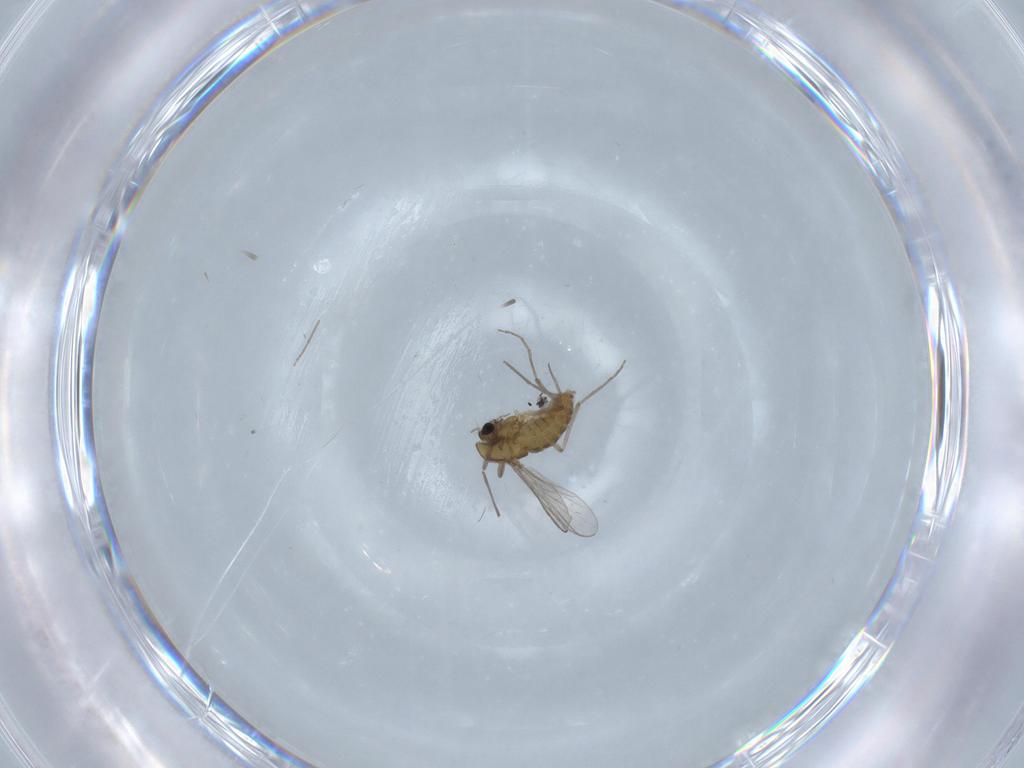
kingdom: Animalia
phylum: Arthropoda
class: Insecta
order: Diptera
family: Chironomidae
